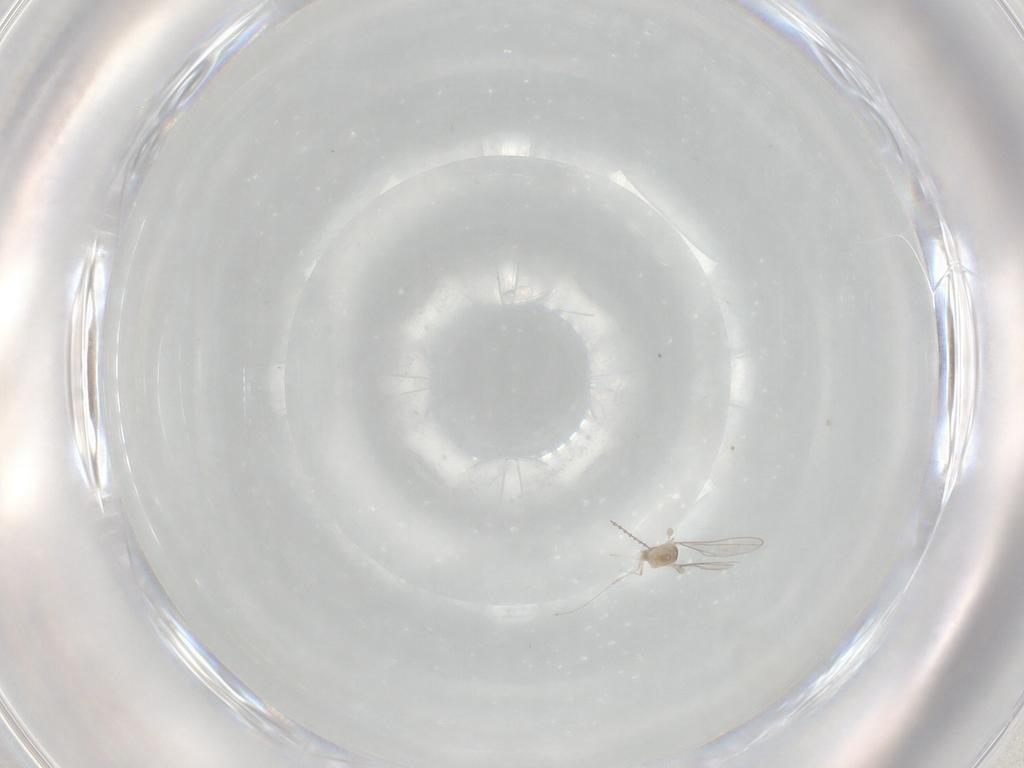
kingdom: Animalia
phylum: Arthropoda
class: Insecta
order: Diptera
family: Cecidomyiidae
